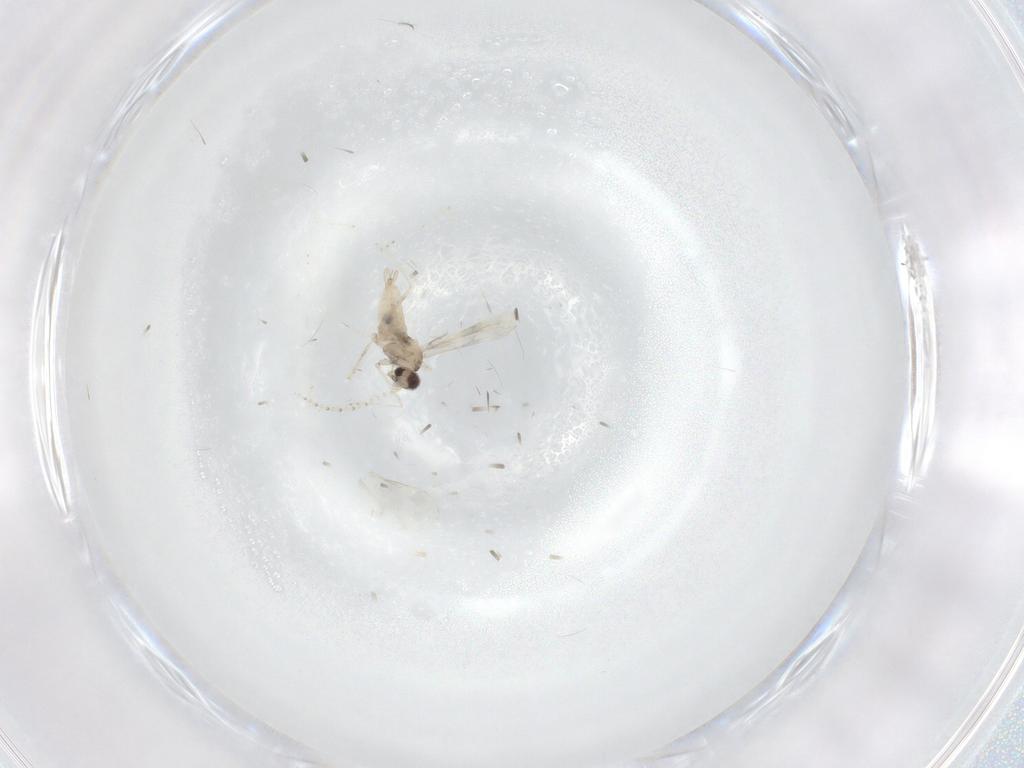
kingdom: Animalia
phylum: Arthropoda
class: Insecta
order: Diptera
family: Cecidomyiidae
